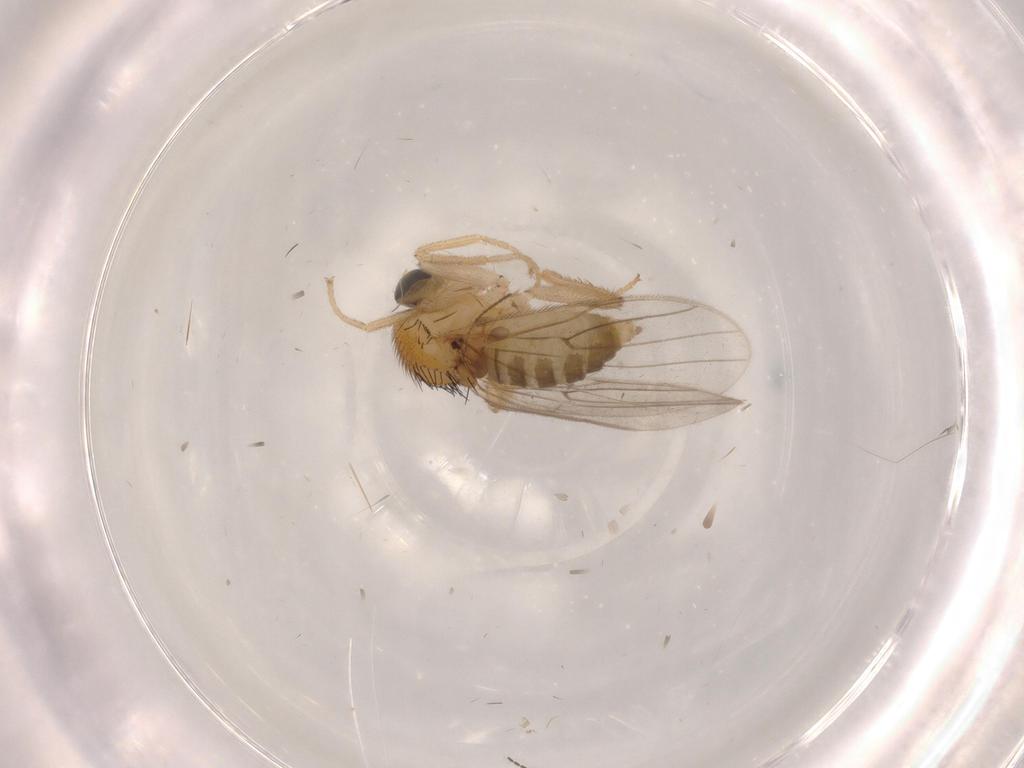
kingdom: Animalia
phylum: Arthropoda
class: Insecta
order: Diptera
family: Hybotidae
